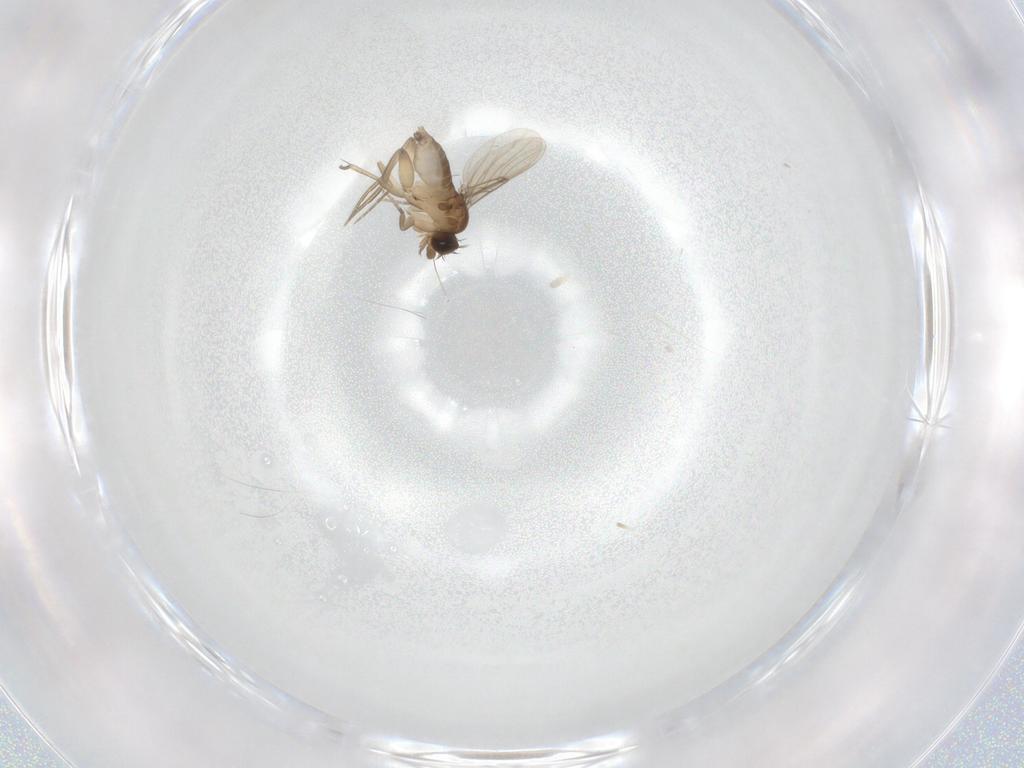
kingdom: Animalia
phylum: Arthropoda
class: Insecta
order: Diptera
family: Phoridae
